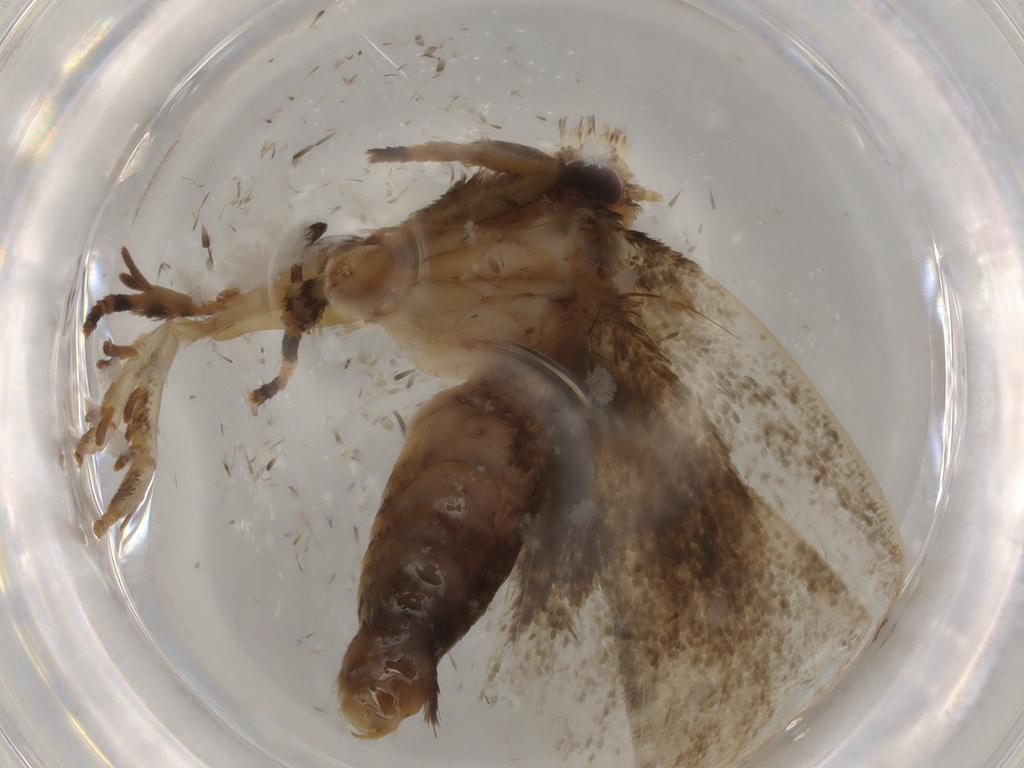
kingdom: Animalia
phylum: Arthropoda
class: Insecta
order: Lepidoptera
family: Tineidae
